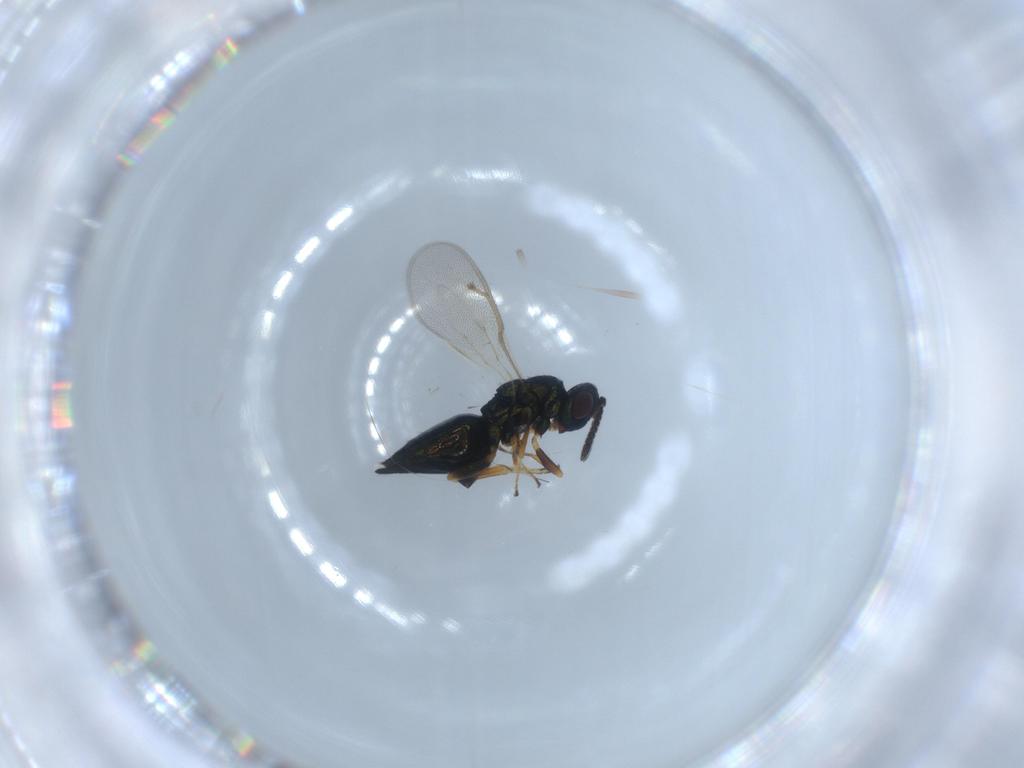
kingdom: Animalia
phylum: Arthropoda
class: Insecta
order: Hymenoptera
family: Pteromalidae
